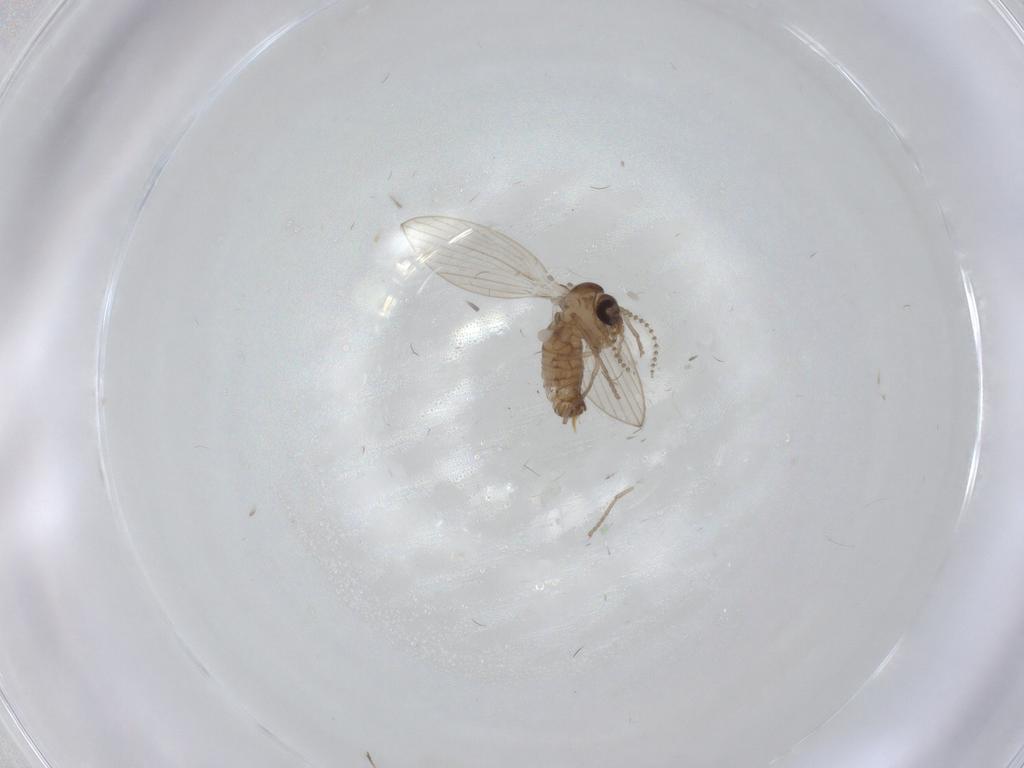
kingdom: Animalia
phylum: Arthropoda
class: Insecta
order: Diptera
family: Psychodidae
